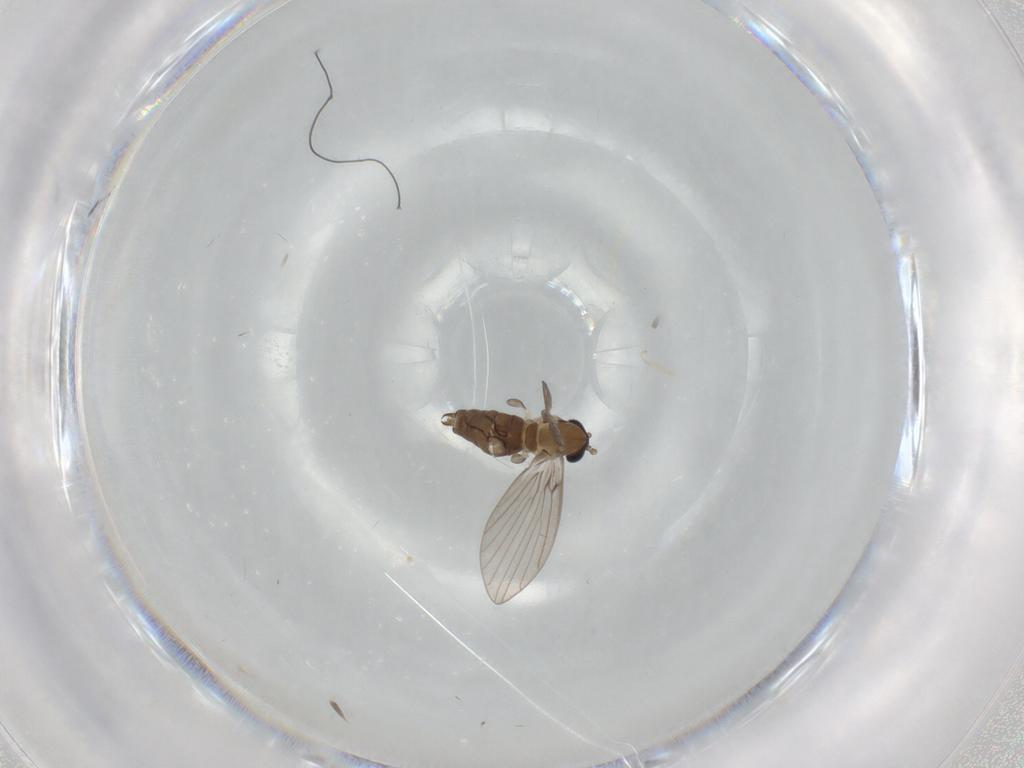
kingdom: Animalia
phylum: Arthropoda
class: Insecta
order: Diptera
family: Psychodidae
